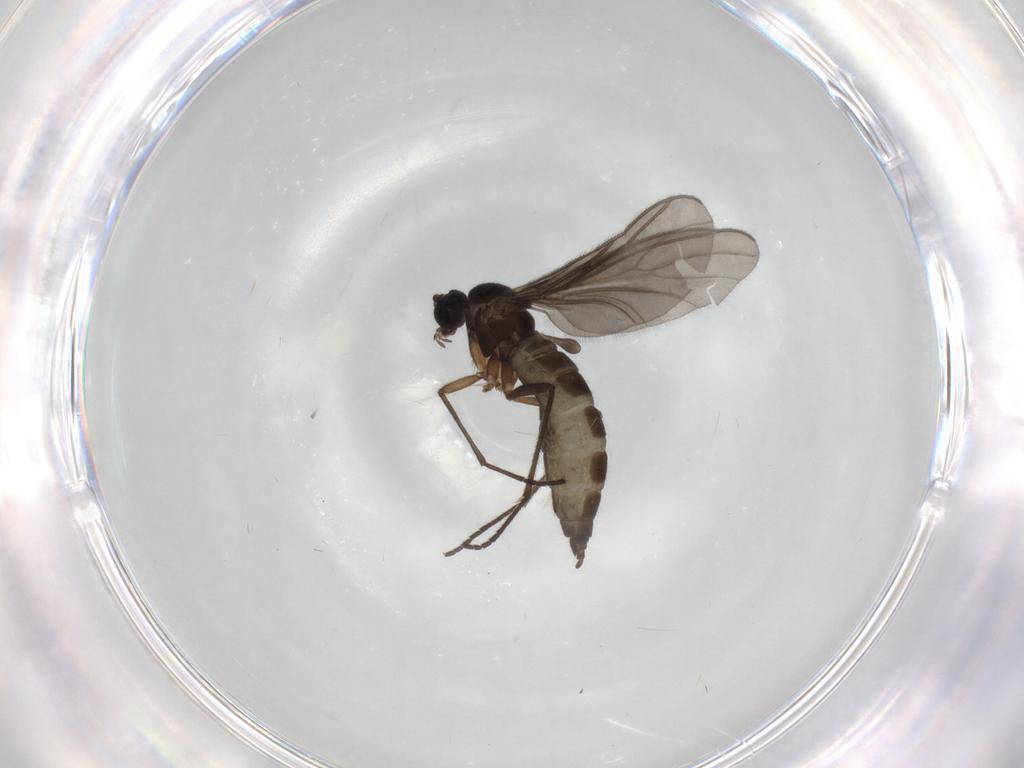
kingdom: Animalia
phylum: Arthropoda
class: Insecta
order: Diptera
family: Sciaridae
